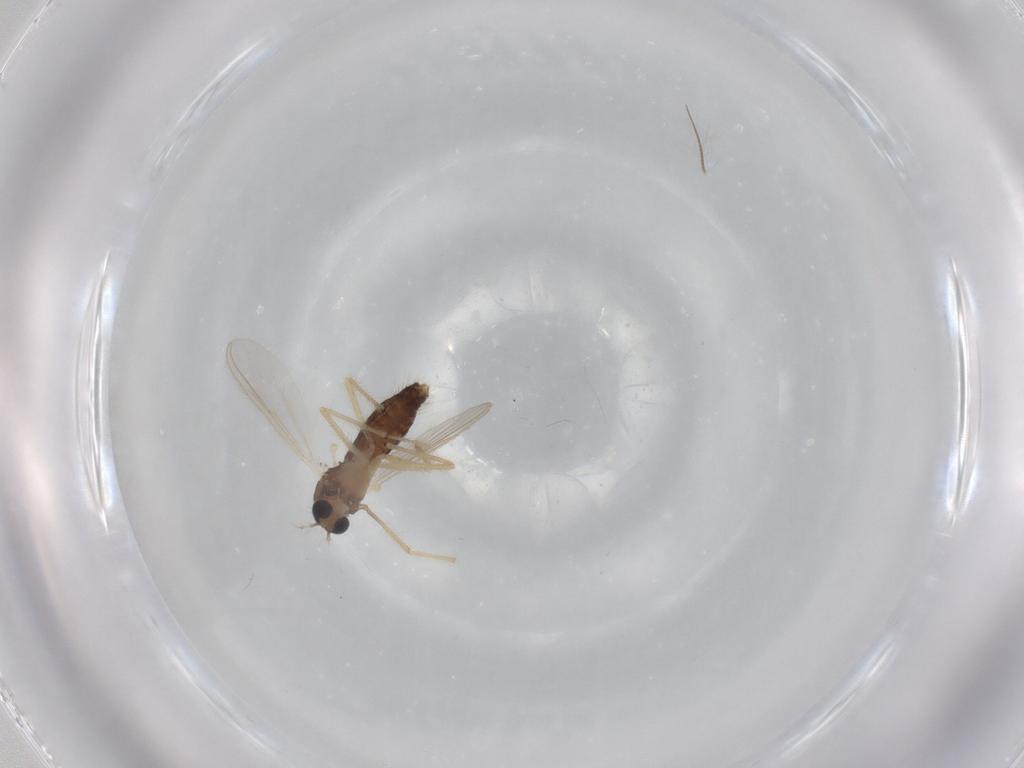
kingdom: Animalia
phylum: Arthropoda
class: Insecta
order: Diptera
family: Chironomidae
